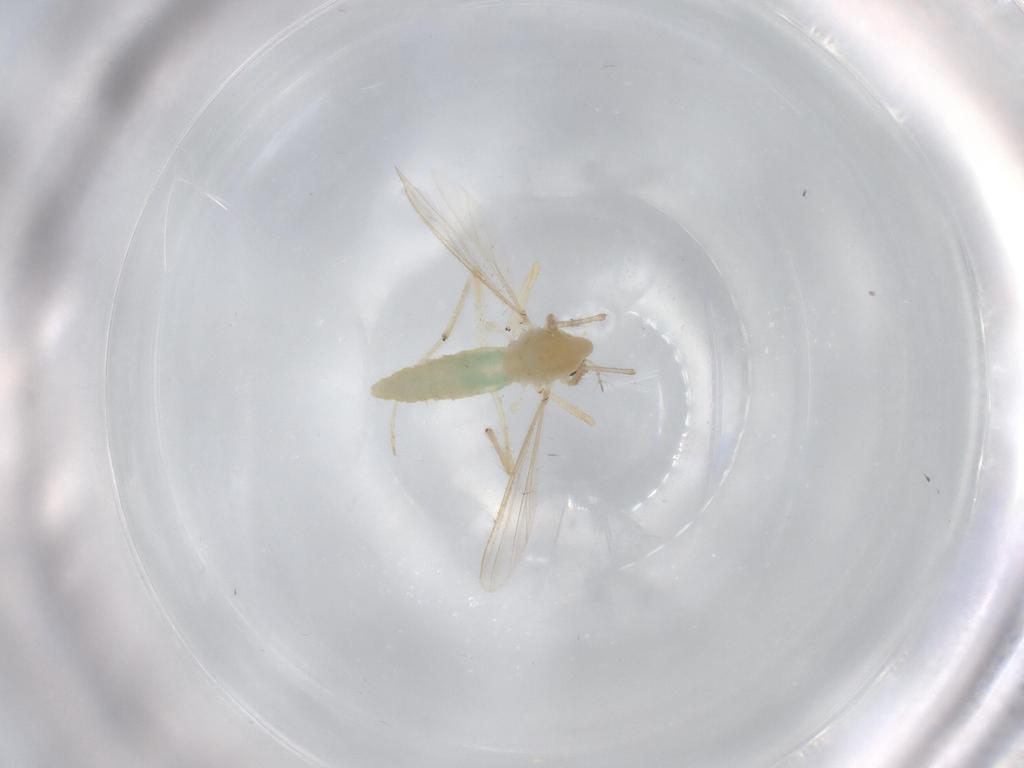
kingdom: Animalia
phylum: Arthropoda
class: Insecta
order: Diptera
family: Chironomidae
